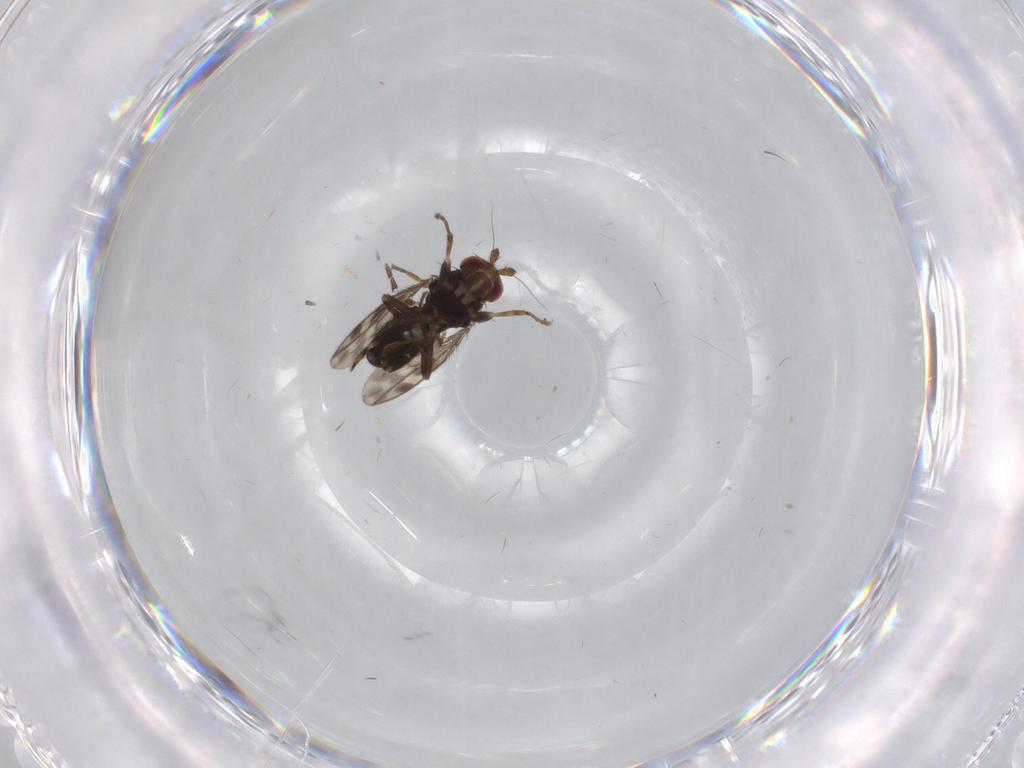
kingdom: Animalia
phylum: Arthropoda
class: Insecta
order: Diptera
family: Sphaeroceridae
